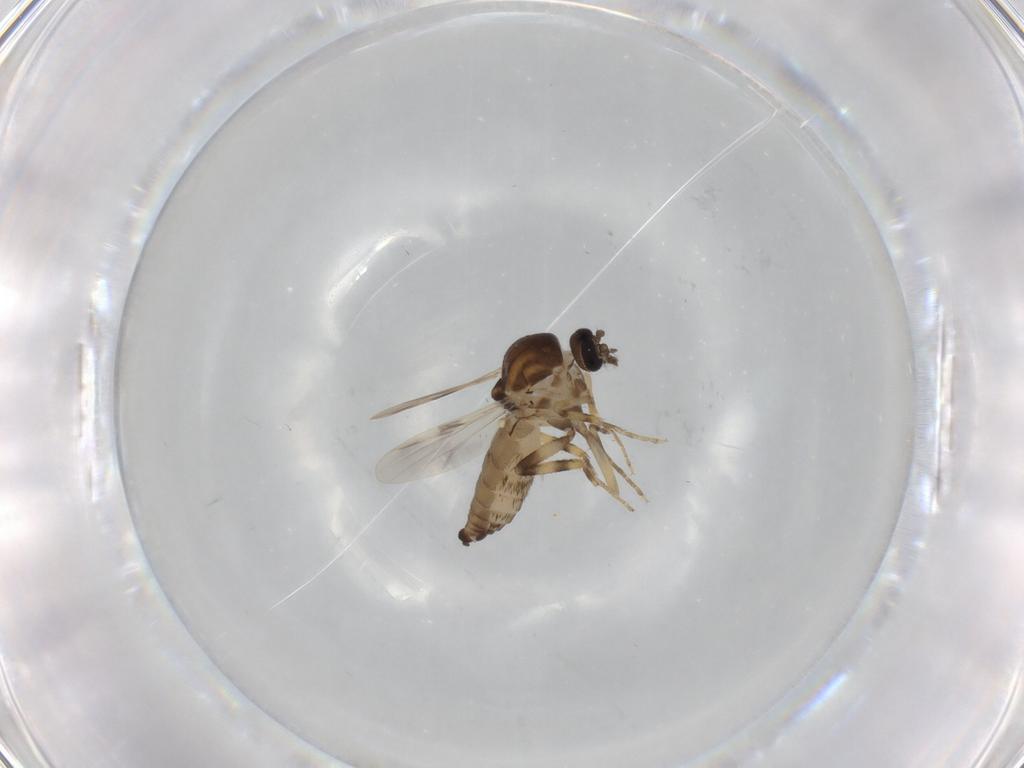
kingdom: Animalia
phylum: Arthropoda
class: Insecta
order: Diptera
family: Ceratopogonidae
